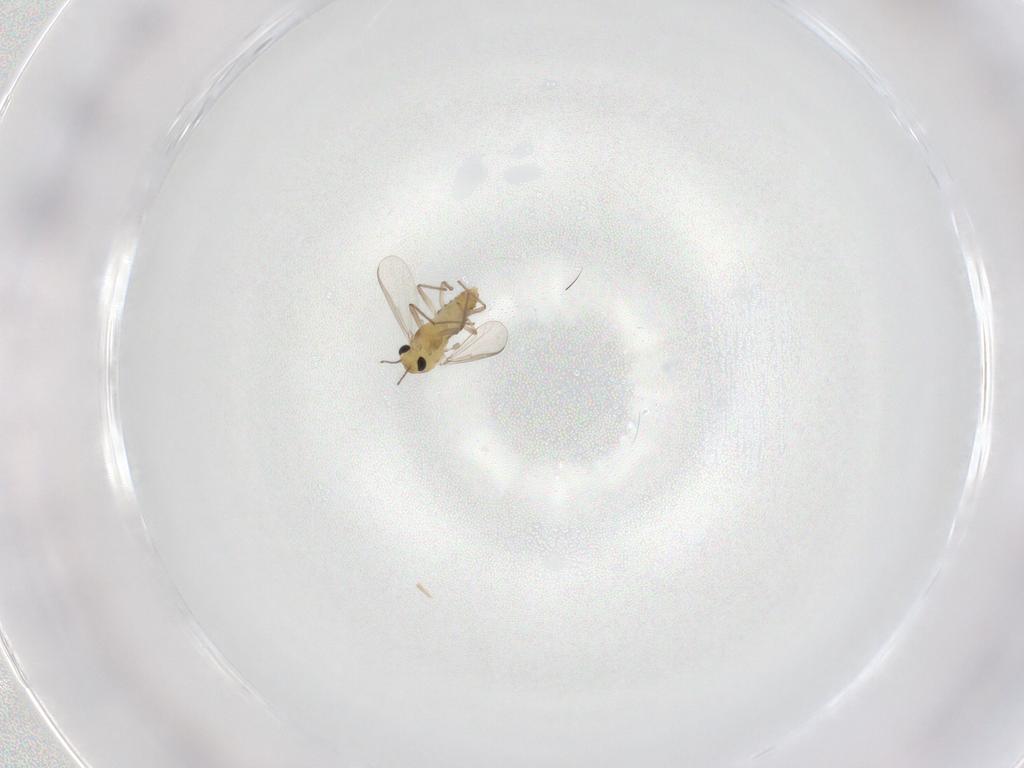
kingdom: Animalia
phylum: Arthropoda
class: Insecta
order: Diptera
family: Chironomidae
